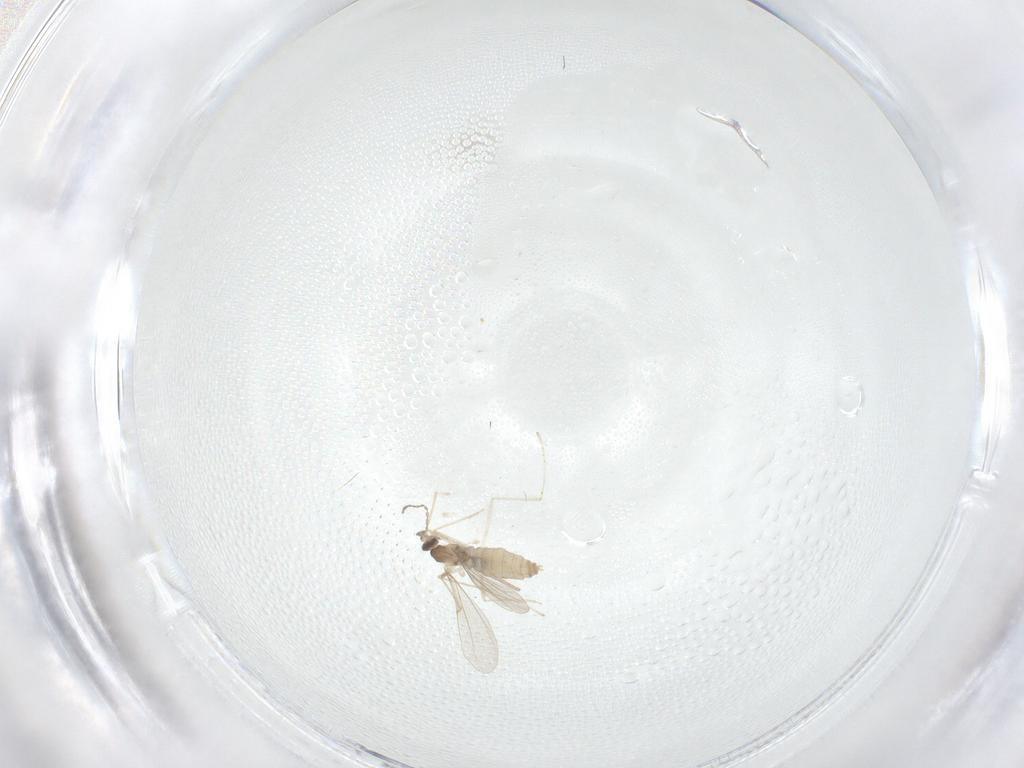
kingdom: Animalia
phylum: Arthropoda
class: Insecta
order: Diptera
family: Cecidomyiidae
